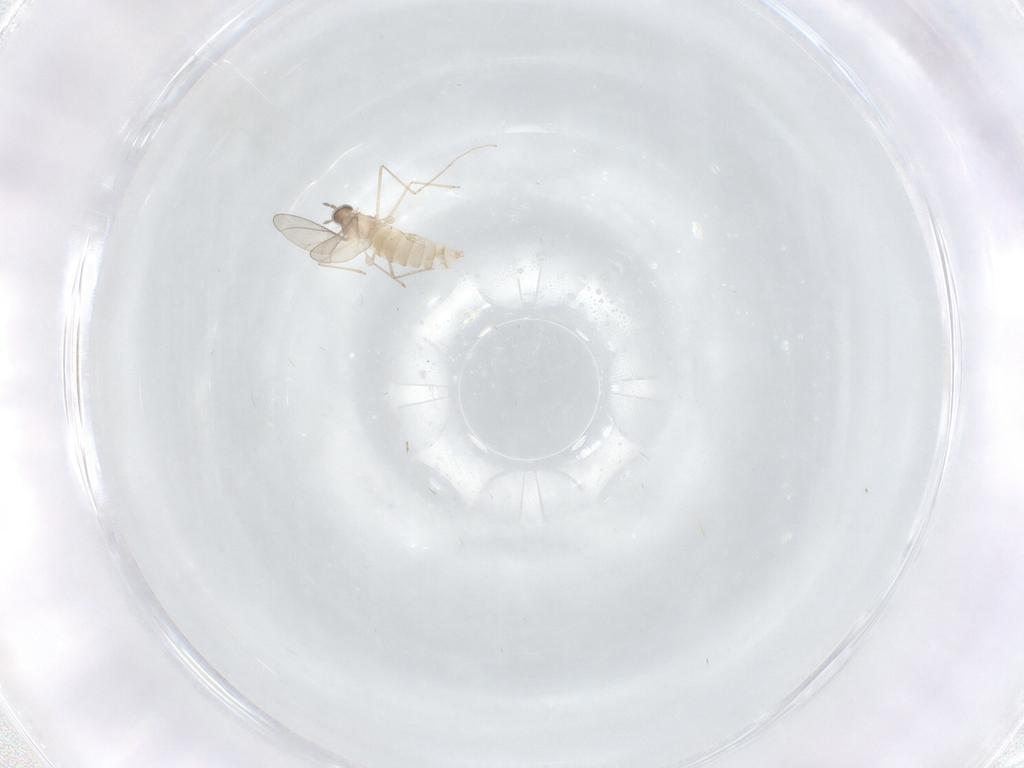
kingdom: Animalia
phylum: Arthropoda
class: Insecta
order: Diptera
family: Cecidomyiidae
